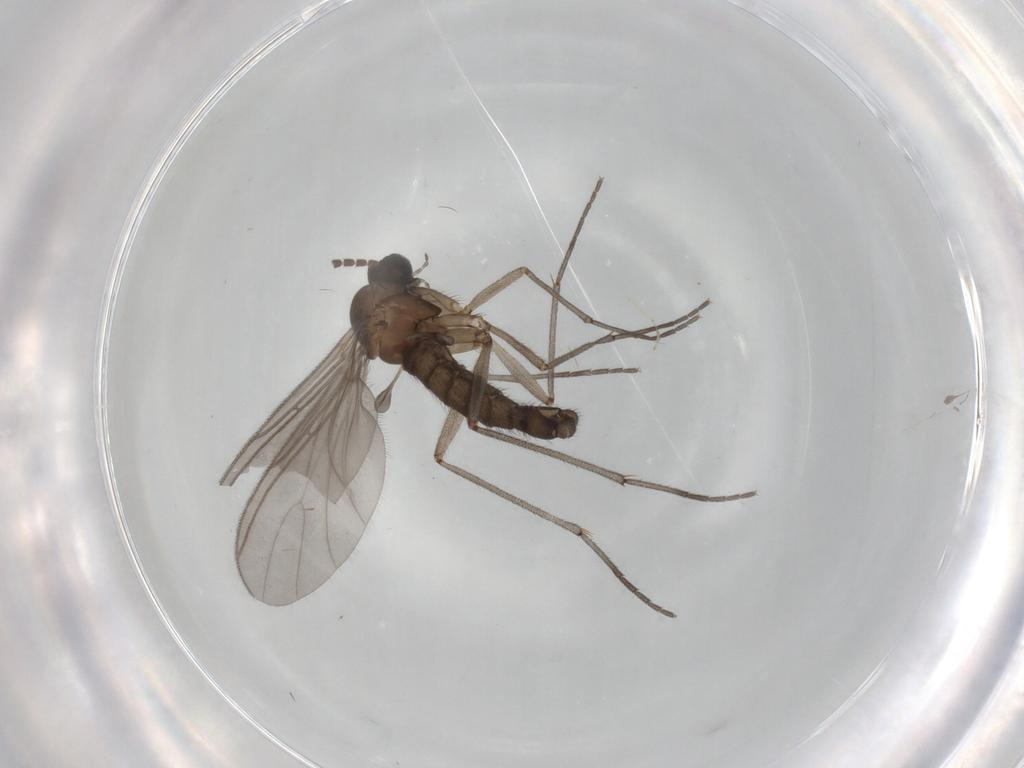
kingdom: Animalia
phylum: Arthropoda
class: Insecta
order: Diptera
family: Sciaridae
